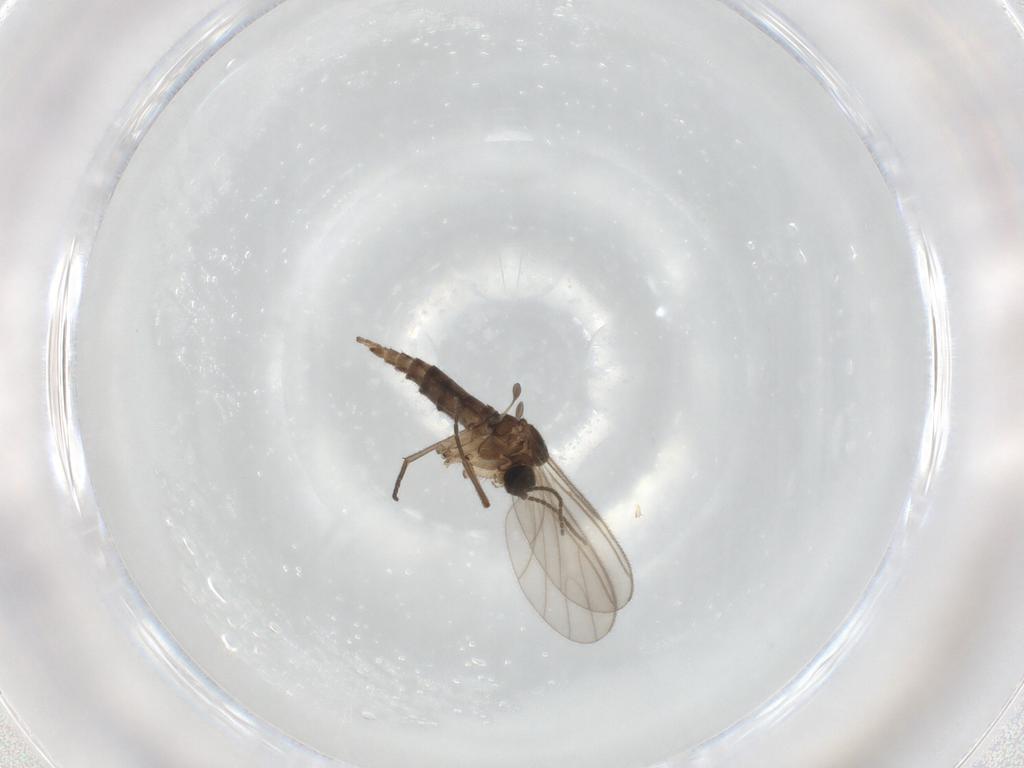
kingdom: Animalia
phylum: Arthropoda
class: Insecta
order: Diptera
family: Sciaridae
